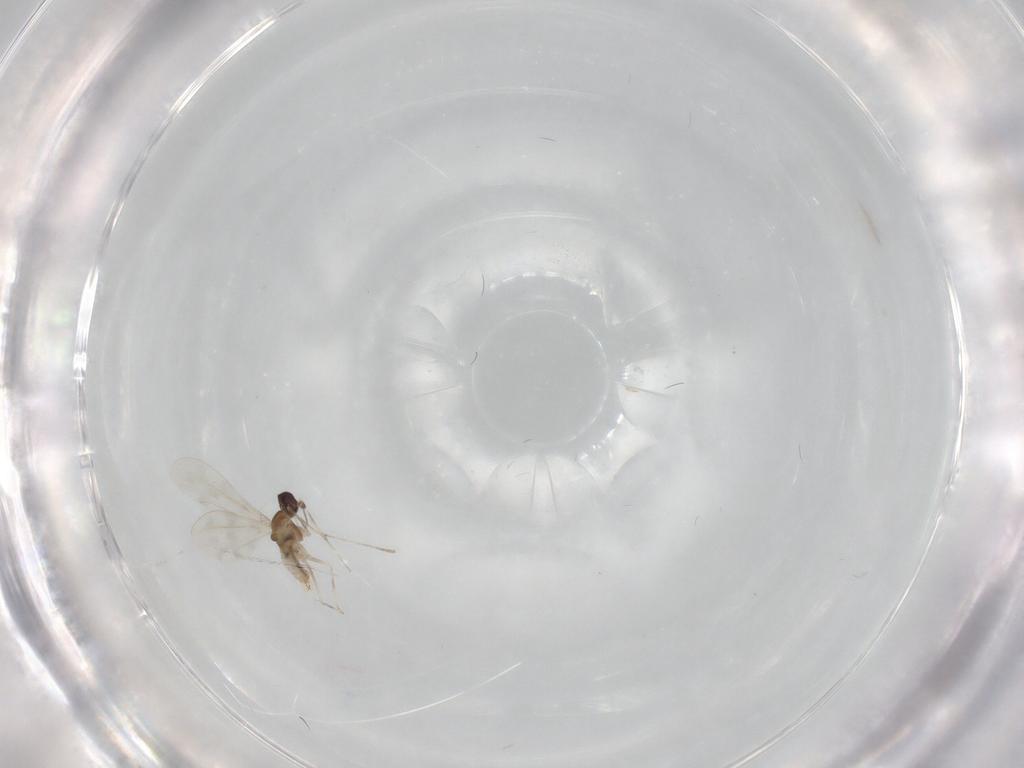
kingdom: Animalia
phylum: Arthropoda
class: Insecta
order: Diptera
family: Cecidomyiidae
